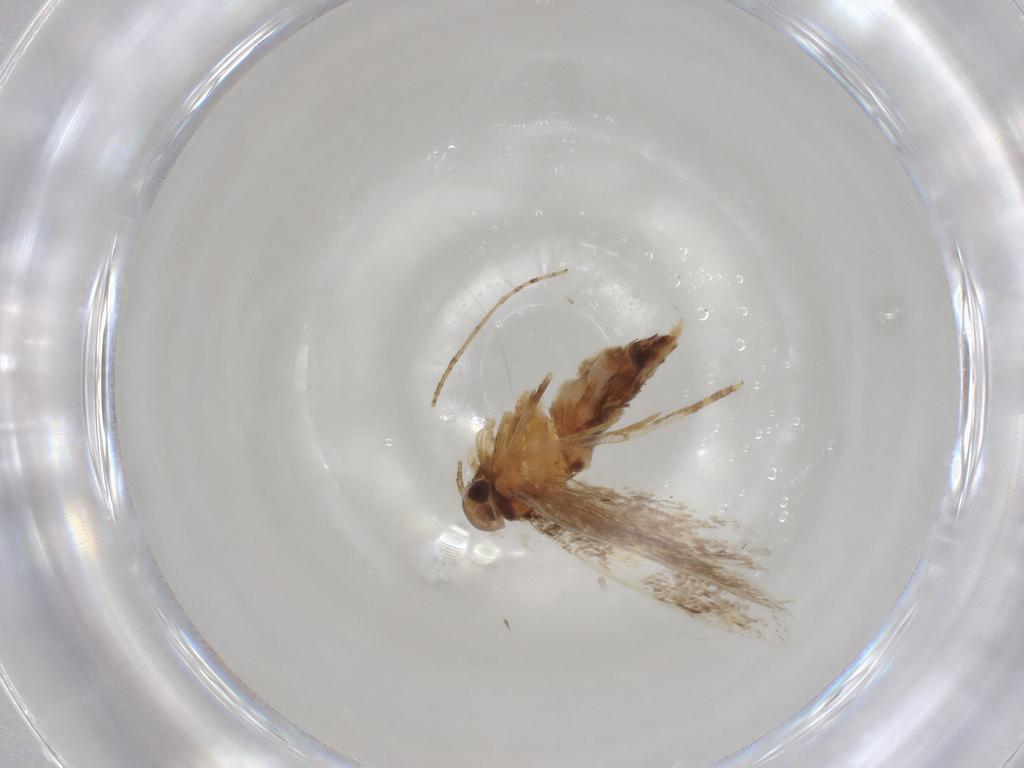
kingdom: Animalia
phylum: Arthropoda
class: Insecta
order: Lepidoptera
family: Oecophoridae
